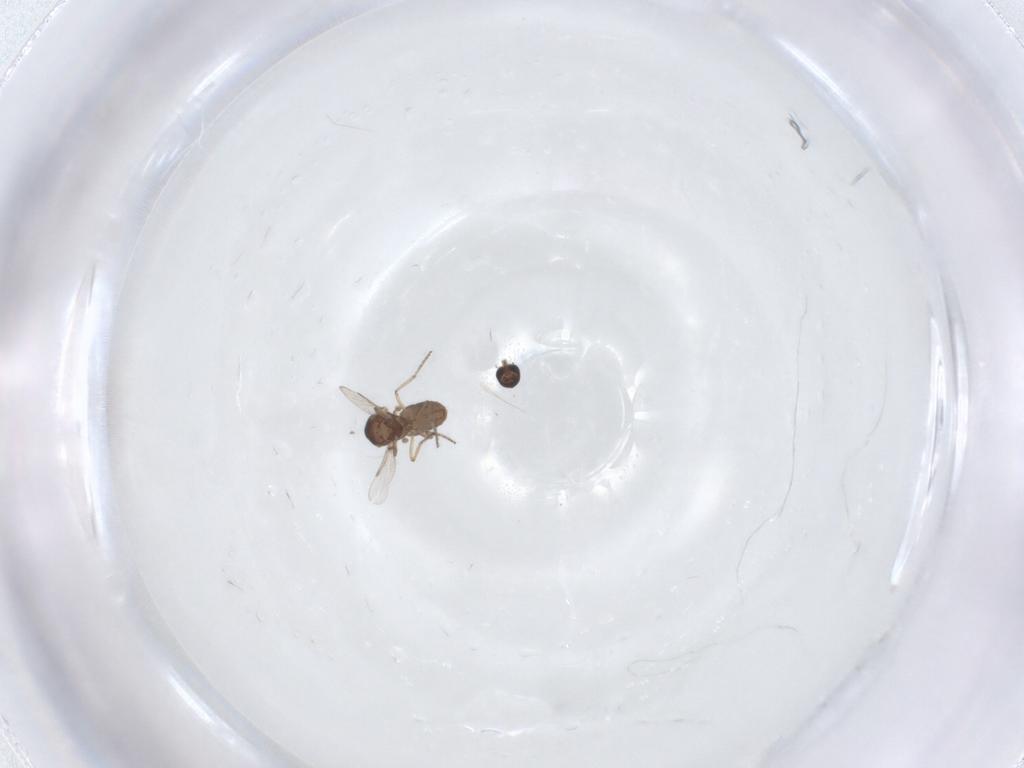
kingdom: Animalia
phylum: Arthropoda
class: Insecta
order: Diptera
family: Ceratopogonidae
